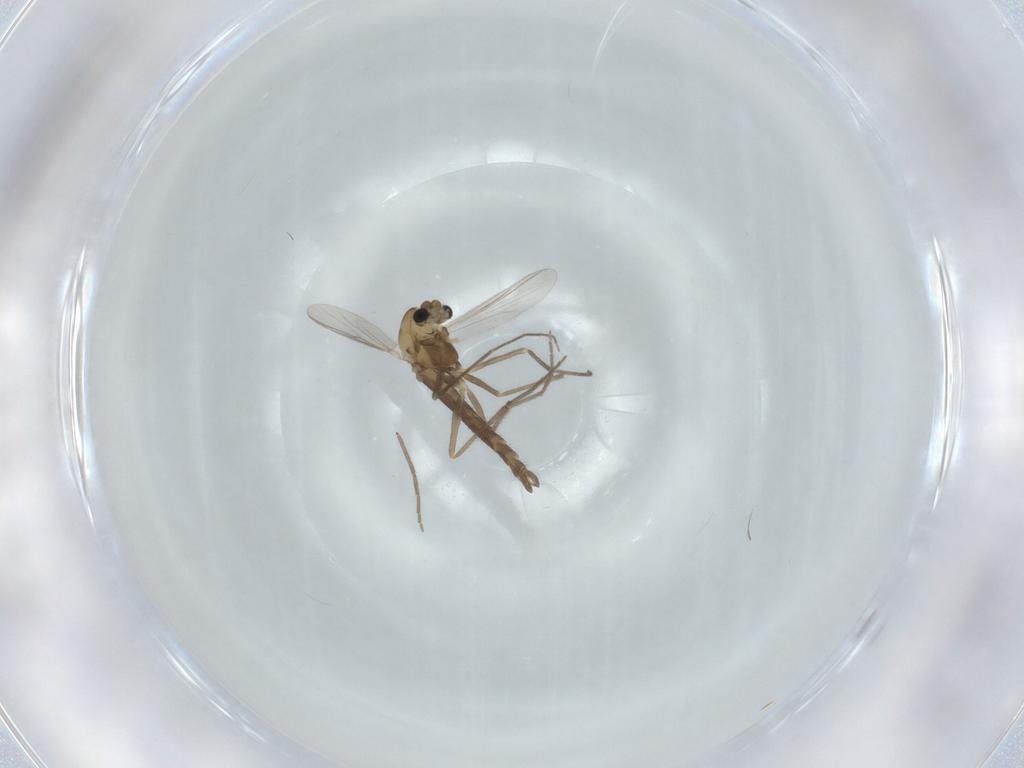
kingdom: Animalia
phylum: Arthropoda
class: Insecta
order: Diptera
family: Chironomidae
